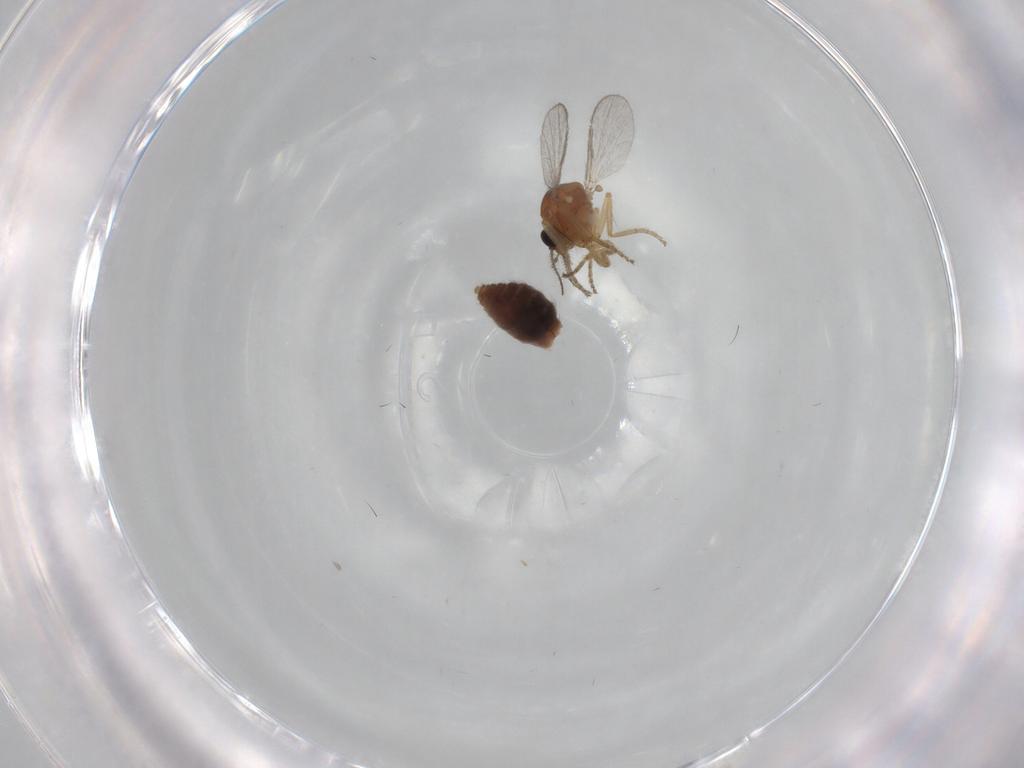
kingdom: Animalia
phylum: Arthropoda
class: Insecta
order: Diptera
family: Ceratopogonidae
